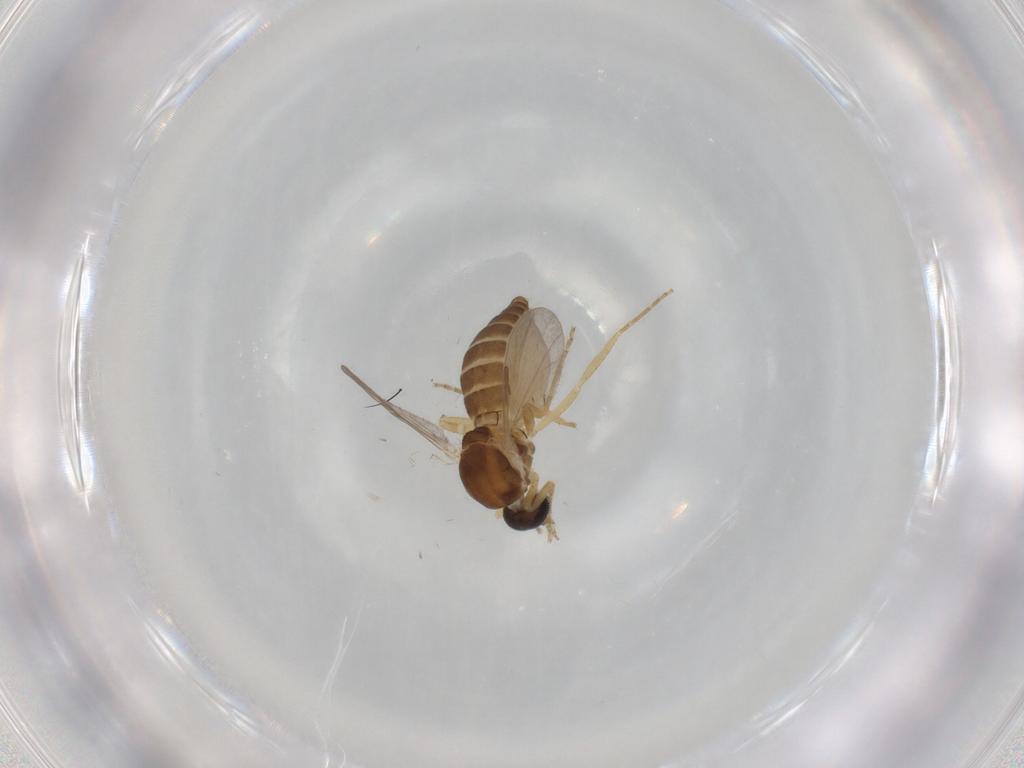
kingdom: Animalia
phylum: Arthropoda
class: Insecta
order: Diptera
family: Ceratopogonidae
